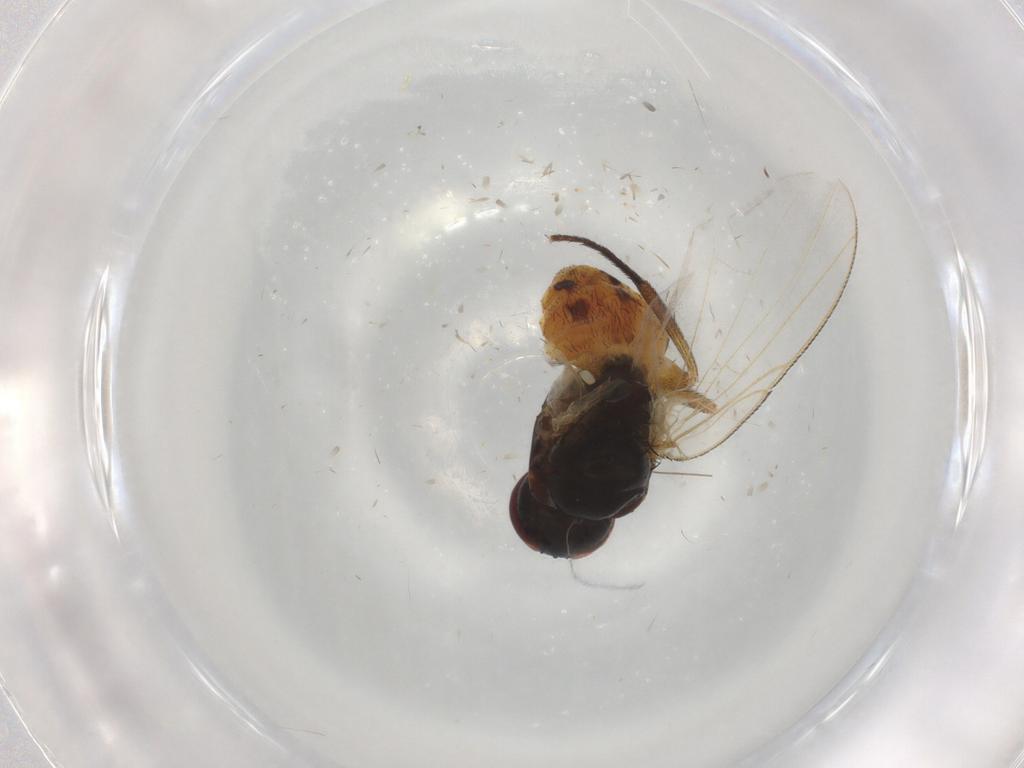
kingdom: Animalia
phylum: Arthropoda
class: Insecta
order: Diptera
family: Muscidae
